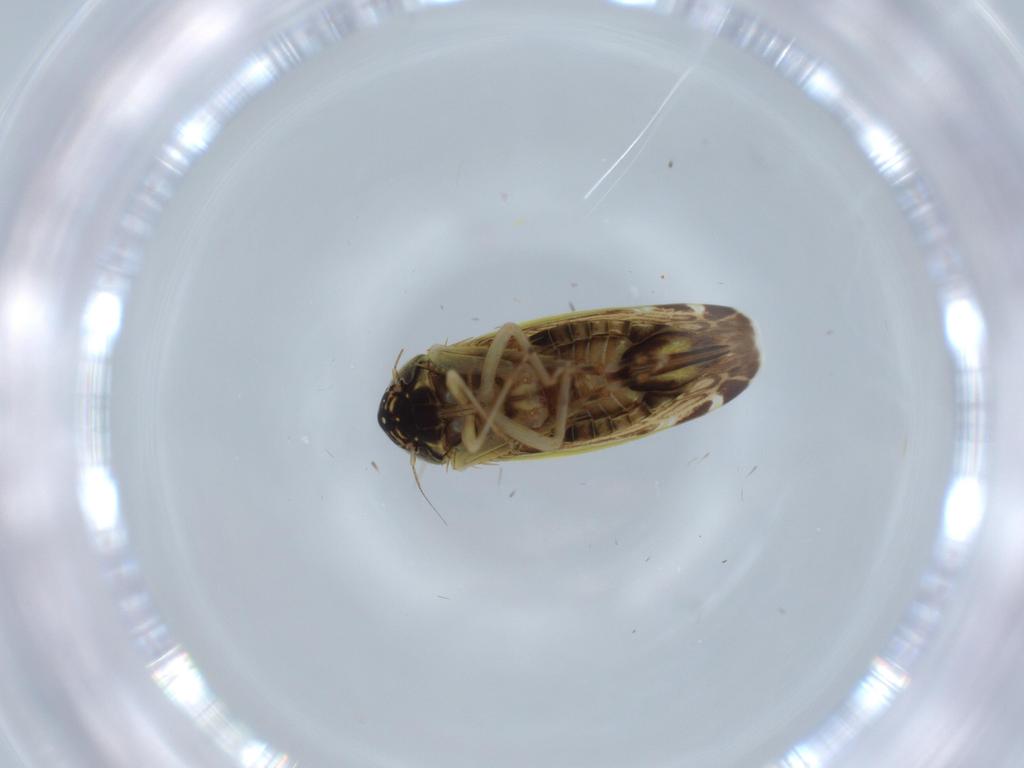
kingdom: Animalia
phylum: Arthropoda
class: Insecta
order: Hemiptera
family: Cicadellidae
